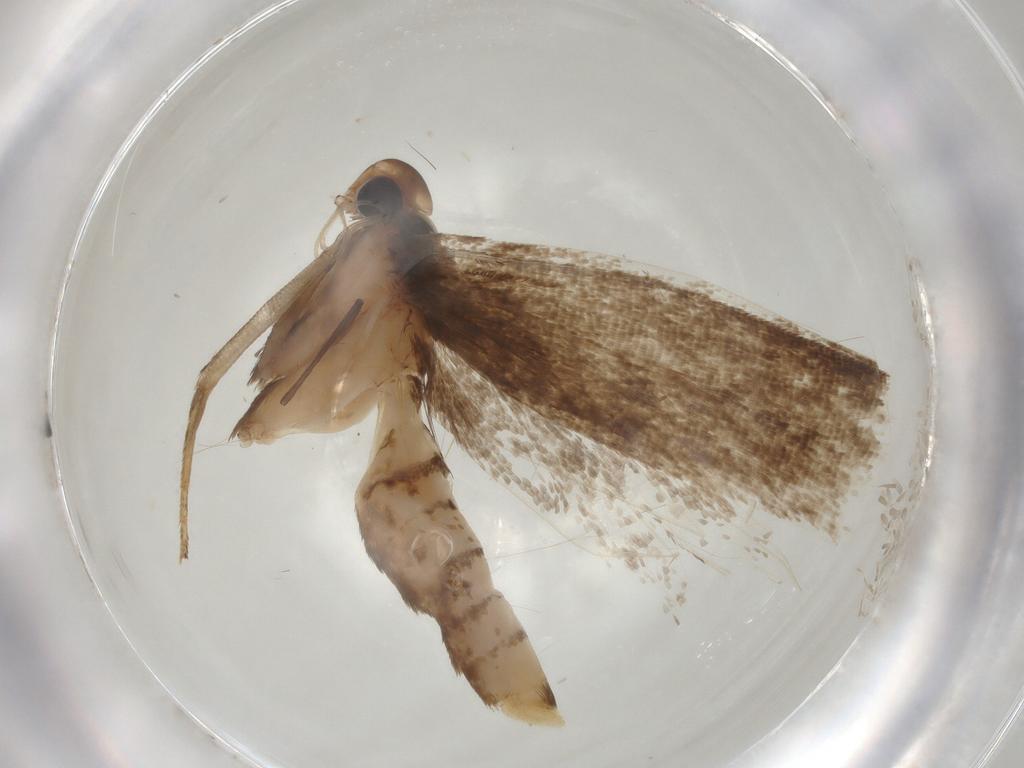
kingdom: Animalia
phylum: Arthropoda
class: Insecta
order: Lepidoptera
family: Gelechiidae
